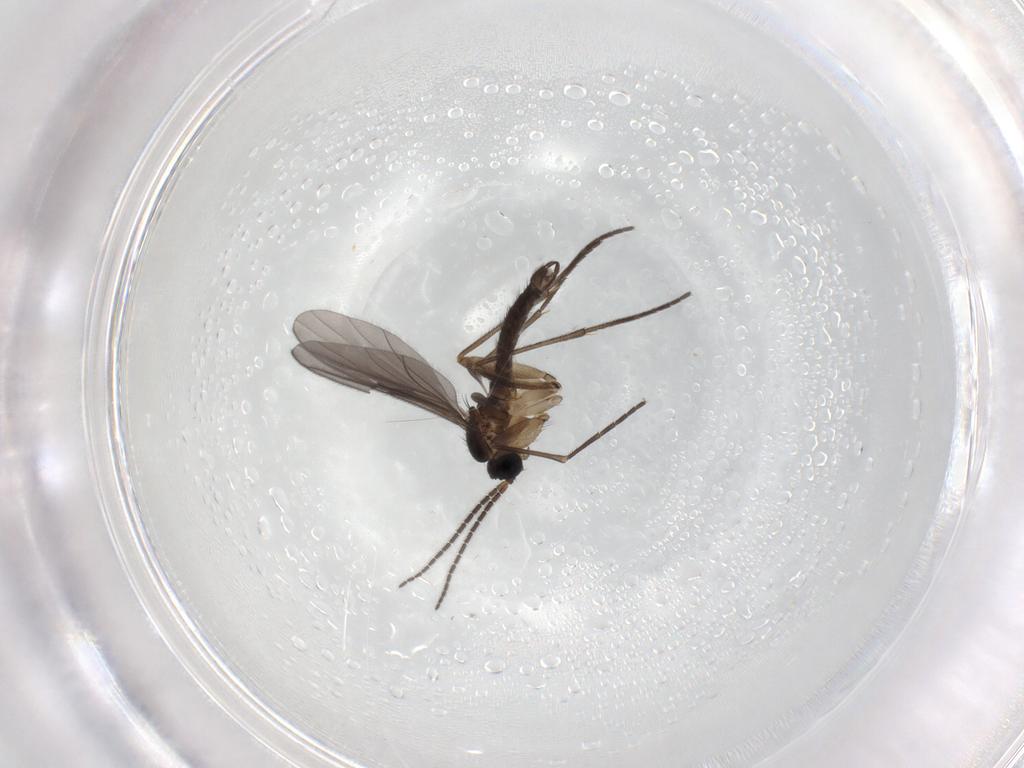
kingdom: Animalia
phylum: Arthropoda
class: Insecta
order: Diptera
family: Sciaridae
